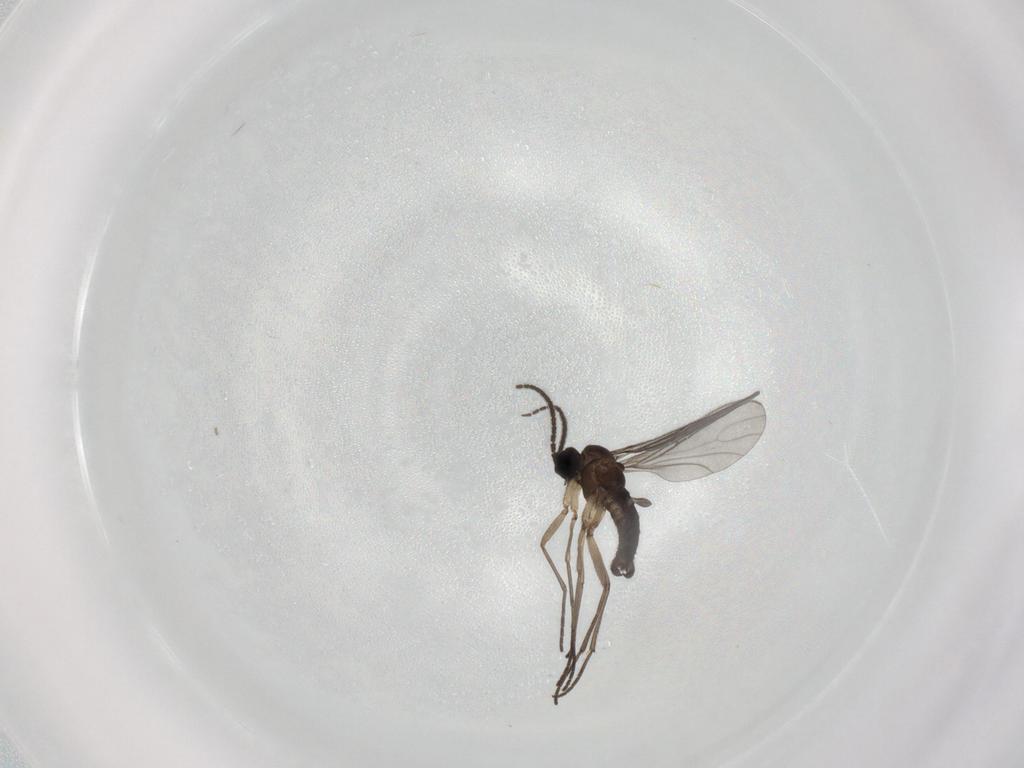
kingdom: Animalia
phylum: Arthropoda
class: Insecta
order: Diptera
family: Sciaridae
